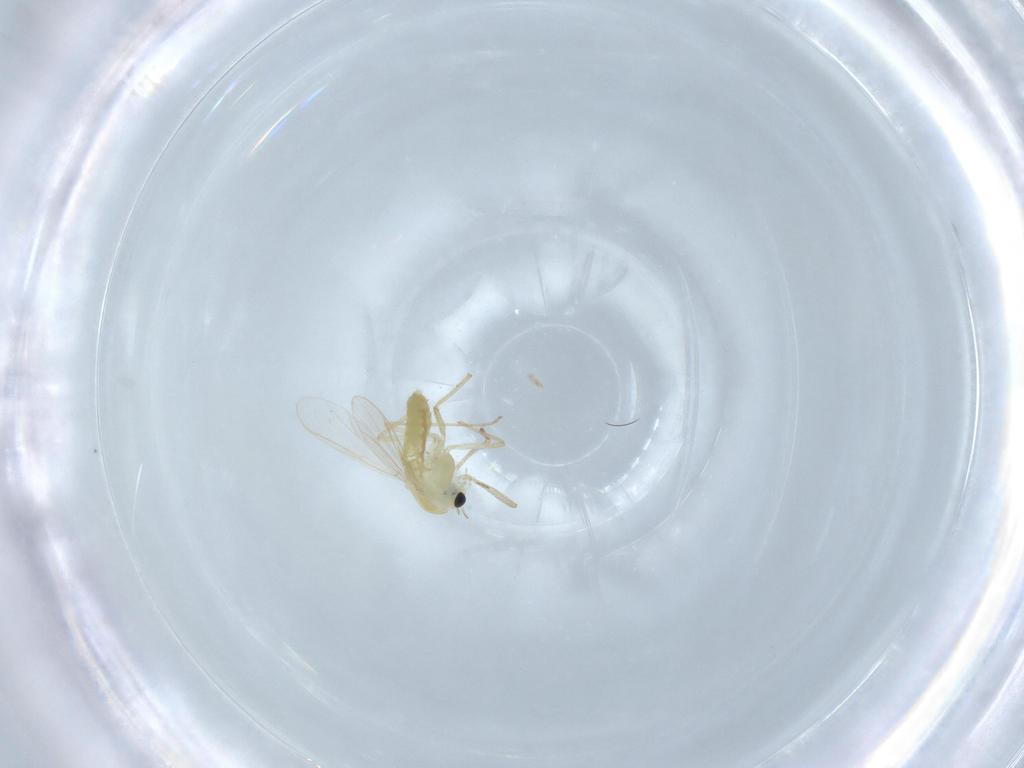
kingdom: Animalia
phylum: Arthropoda
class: Insecta
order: Diptera
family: Chironomidae
